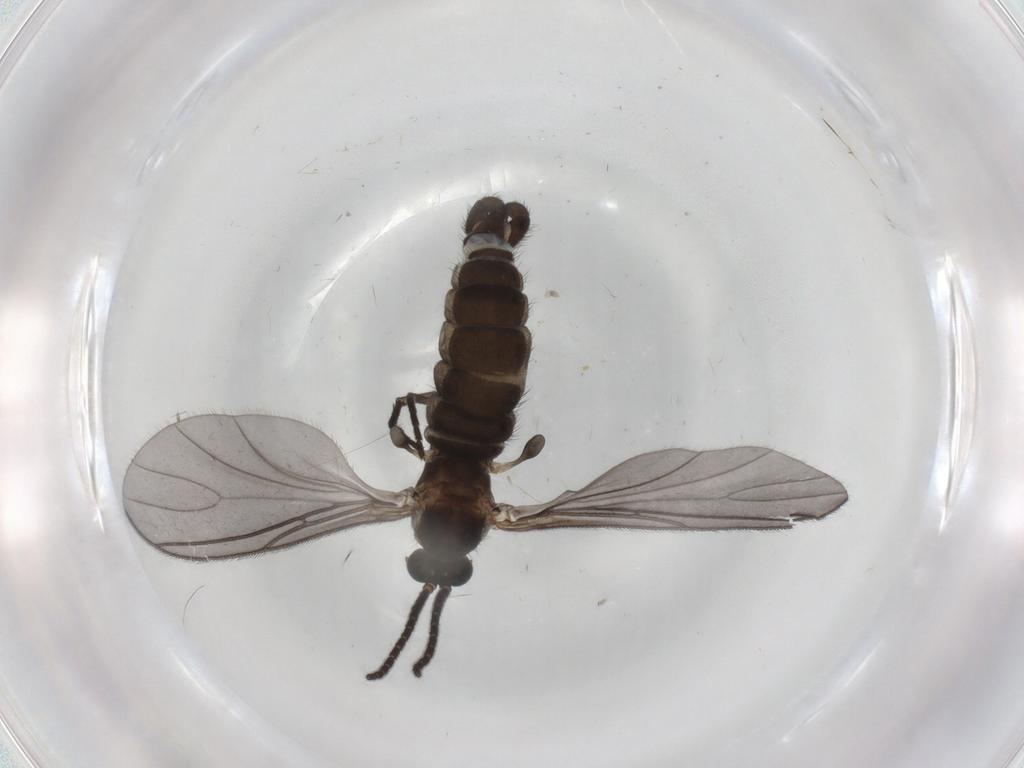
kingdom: Animalia
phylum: Arthropoda
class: Insecta
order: Diptera
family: Sciaridae
